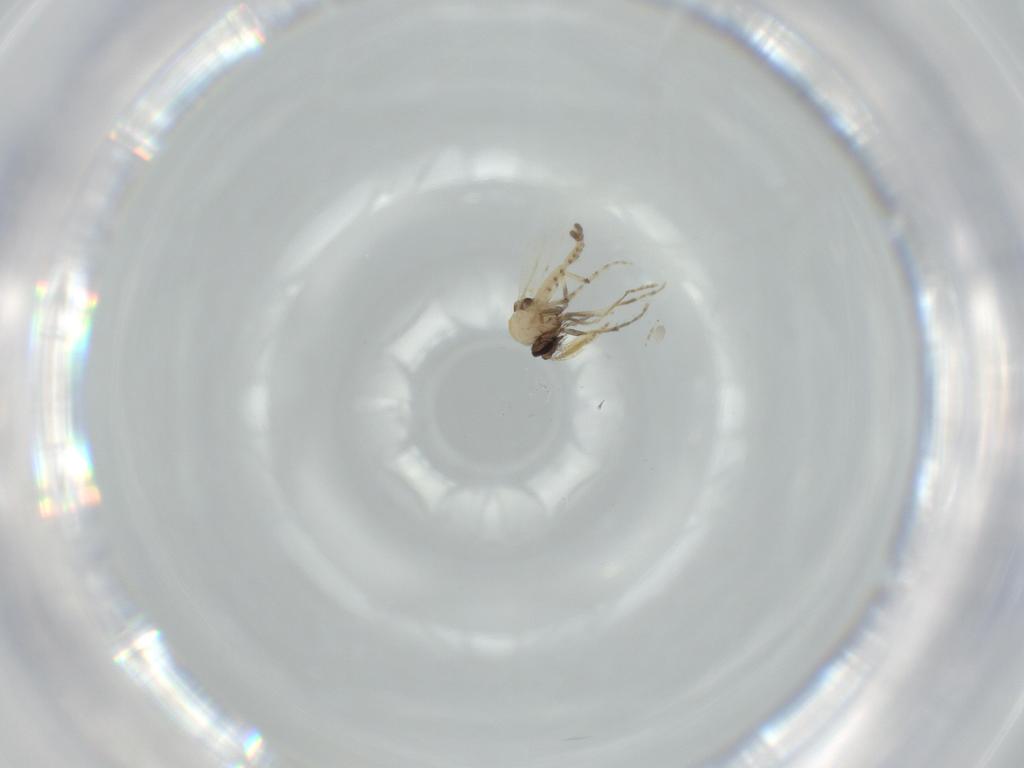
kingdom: Animalia
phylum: Arthropoda
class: Insecta
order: Diptera
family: Ceratopogonidae
